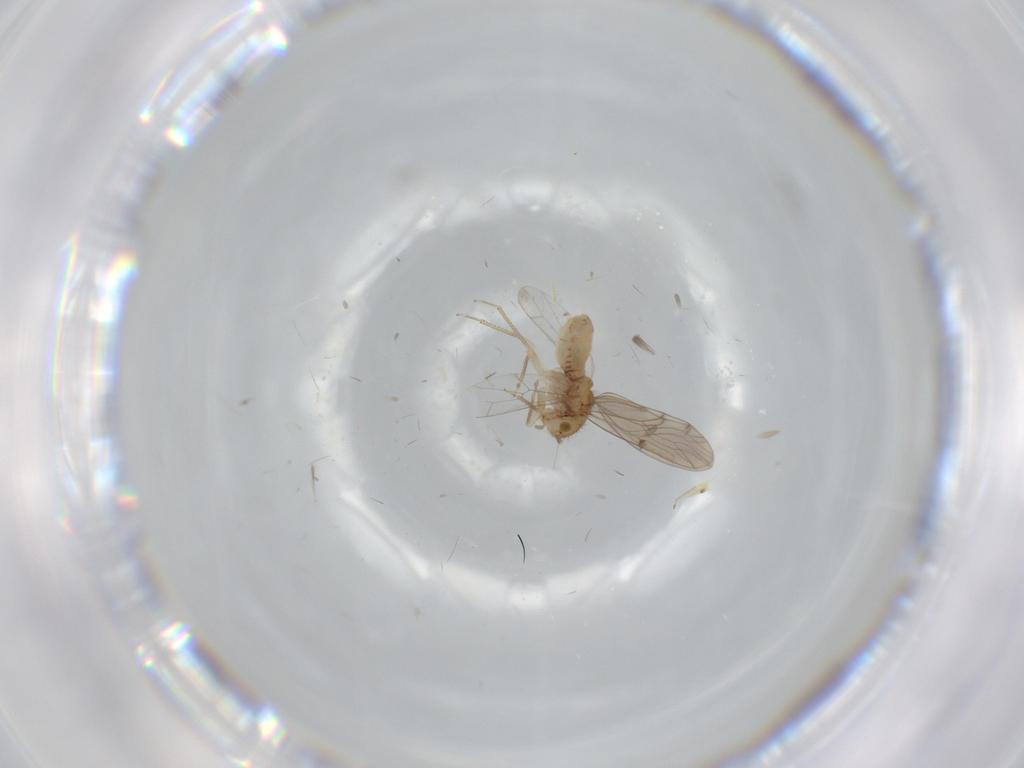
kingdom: Animalia
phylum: Arthropoda
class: Insecta
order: Psocodea
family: Ectopsocidae
